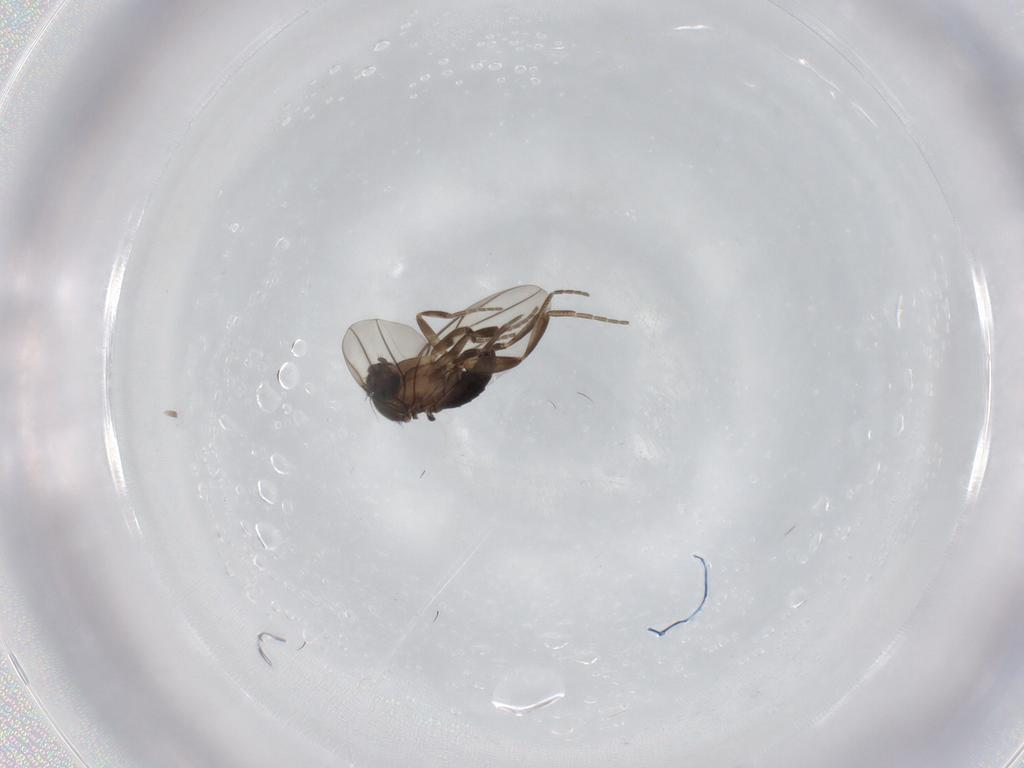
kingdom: Animalia
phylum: Arthropoda
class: Insecta
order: Diptera
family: Phoridae
